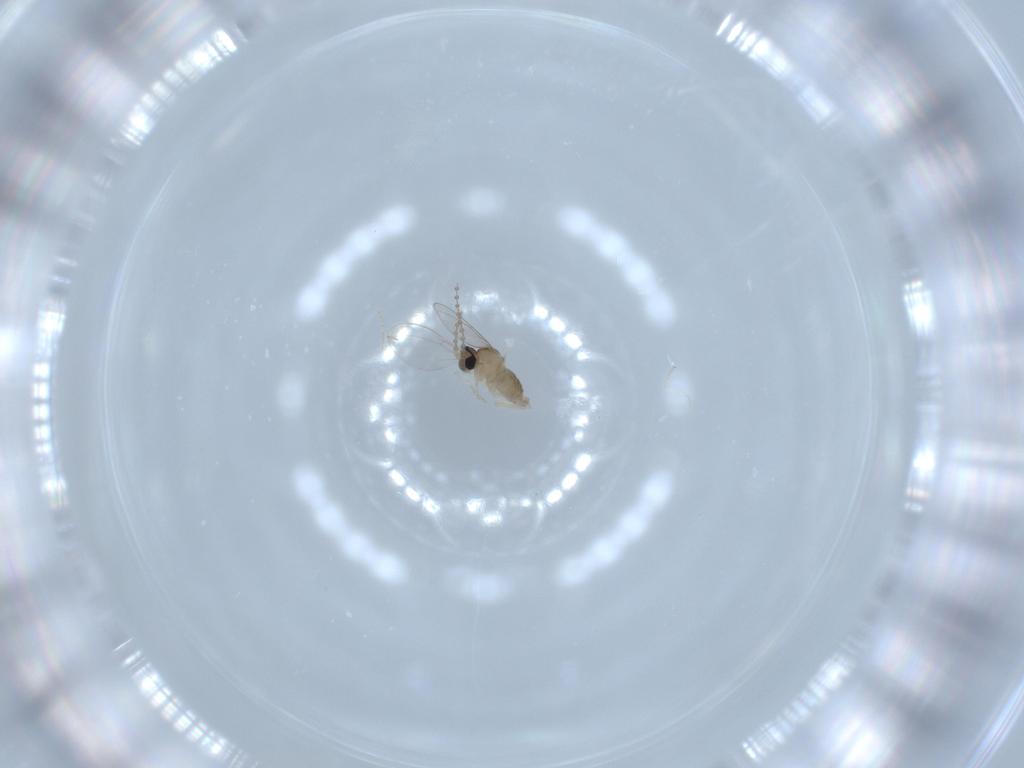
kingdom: Animalia
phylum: Arthropoda
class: Insecta
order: Diptera
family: Cecidomyiidae
